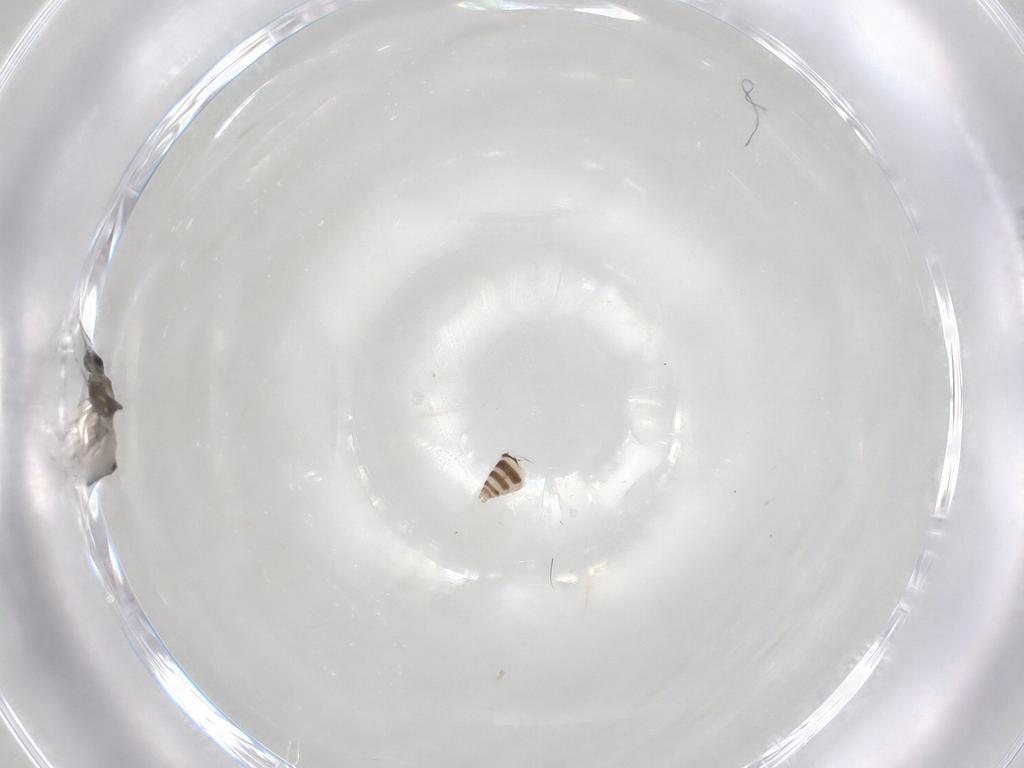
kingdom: Animalia
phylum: Arthropoda
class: Insecta
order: Diptera
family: Ceratopogonidae
